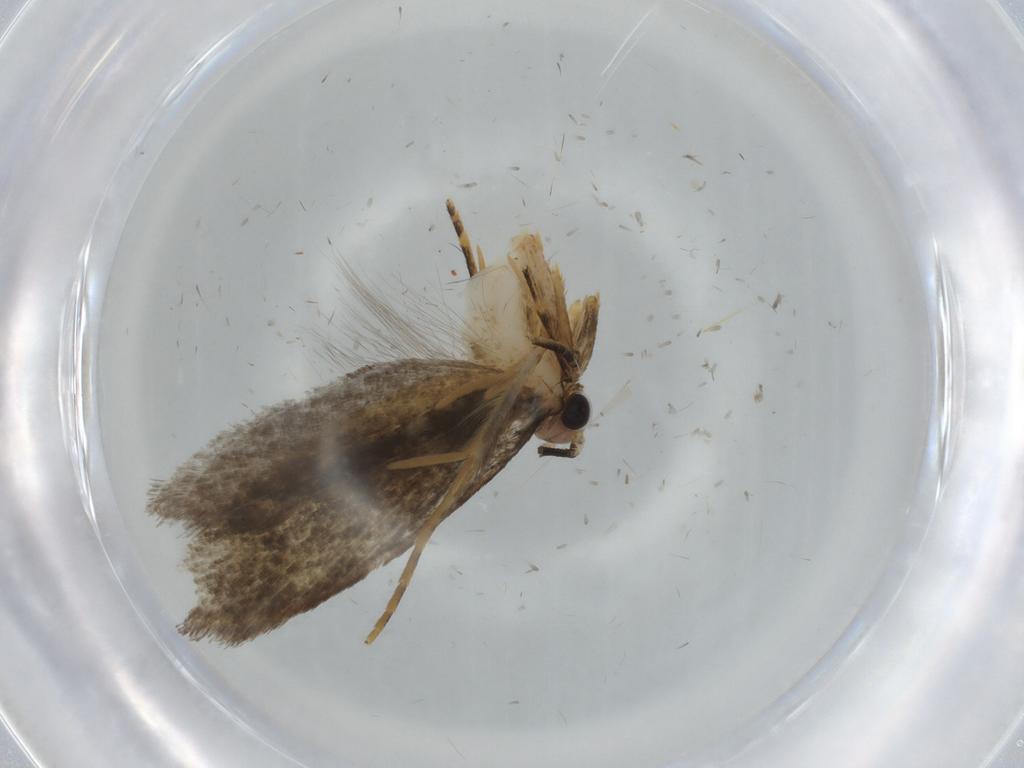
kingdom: Animalia
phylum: Arthropoda
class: Insecta
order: Lepidoptera
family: Tineidae
